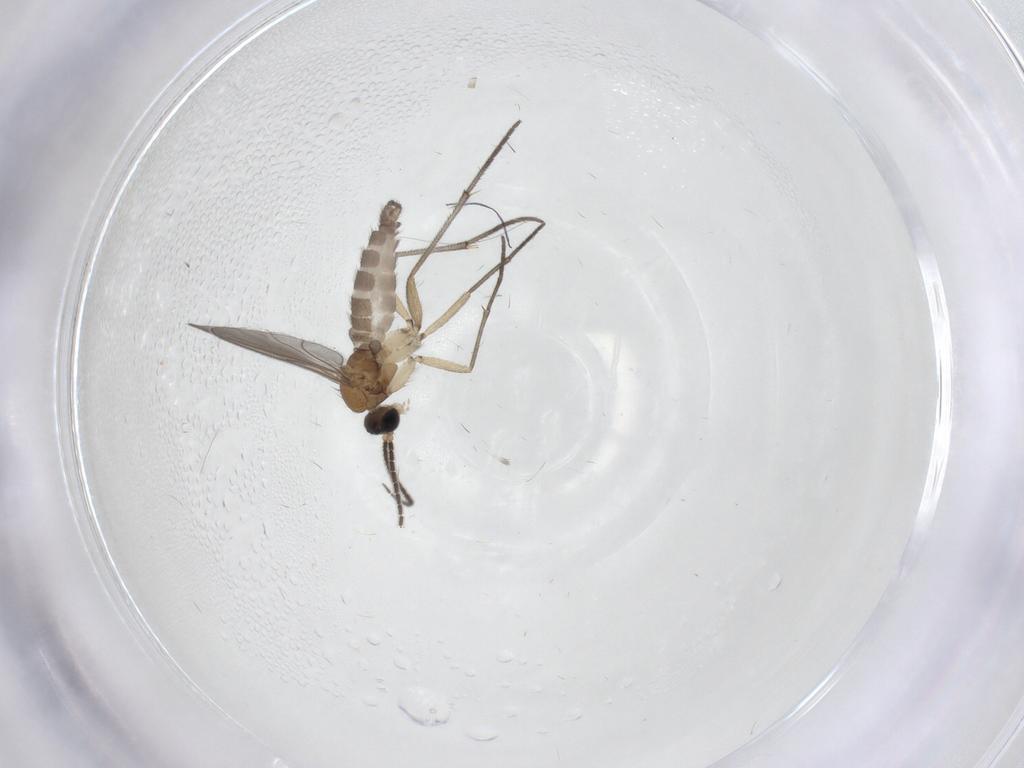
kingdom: Animalia
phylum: Arthropoda
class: Insecta
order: Diptera
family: Sciaridae
